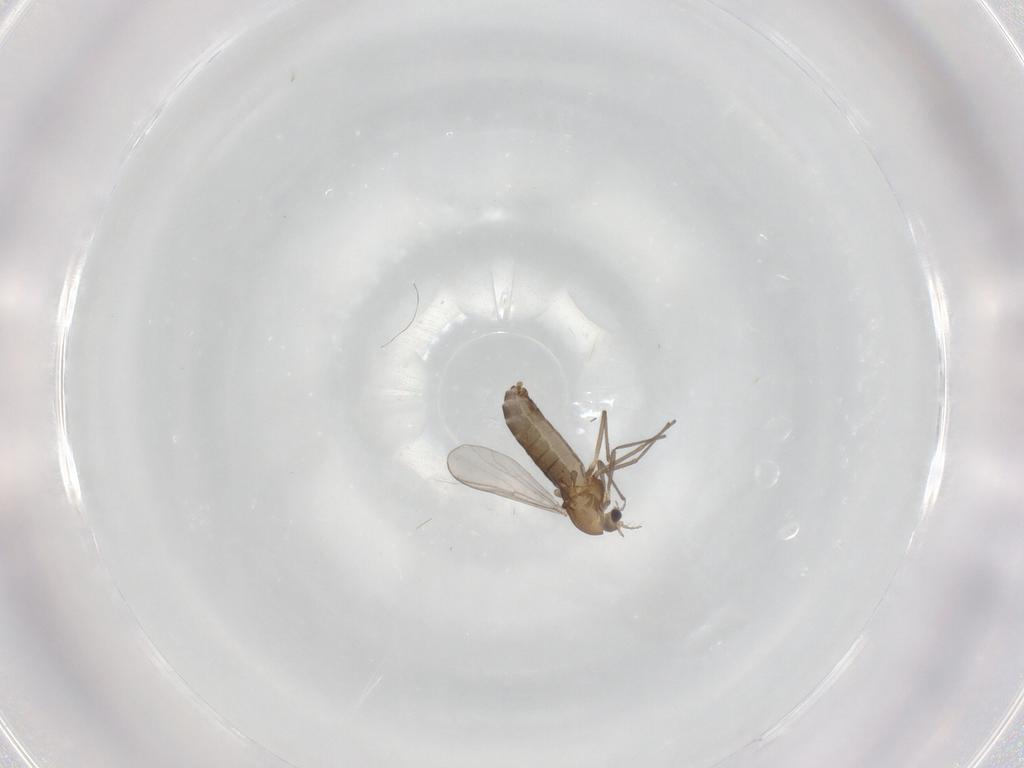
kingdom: Animalia
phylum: Arthropoda
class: Insecta
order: Diptera
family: Chironomidae
